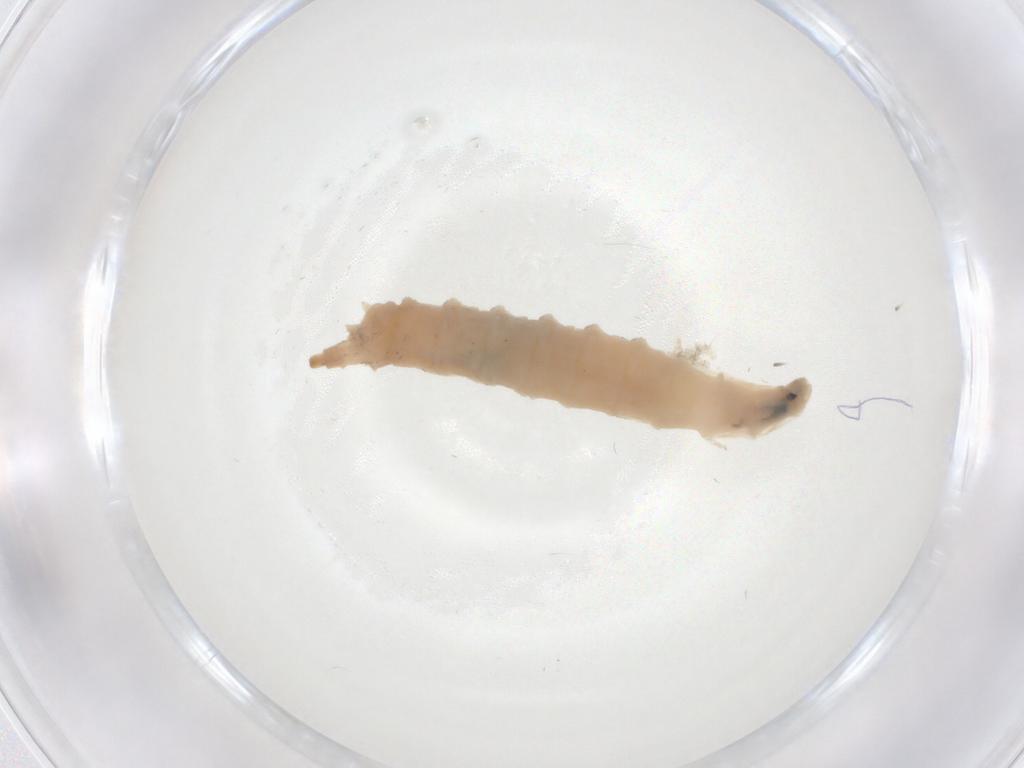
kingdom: Animalia
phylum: Arthropoda
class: Insecta
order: Diptera
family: Drosophilidae
